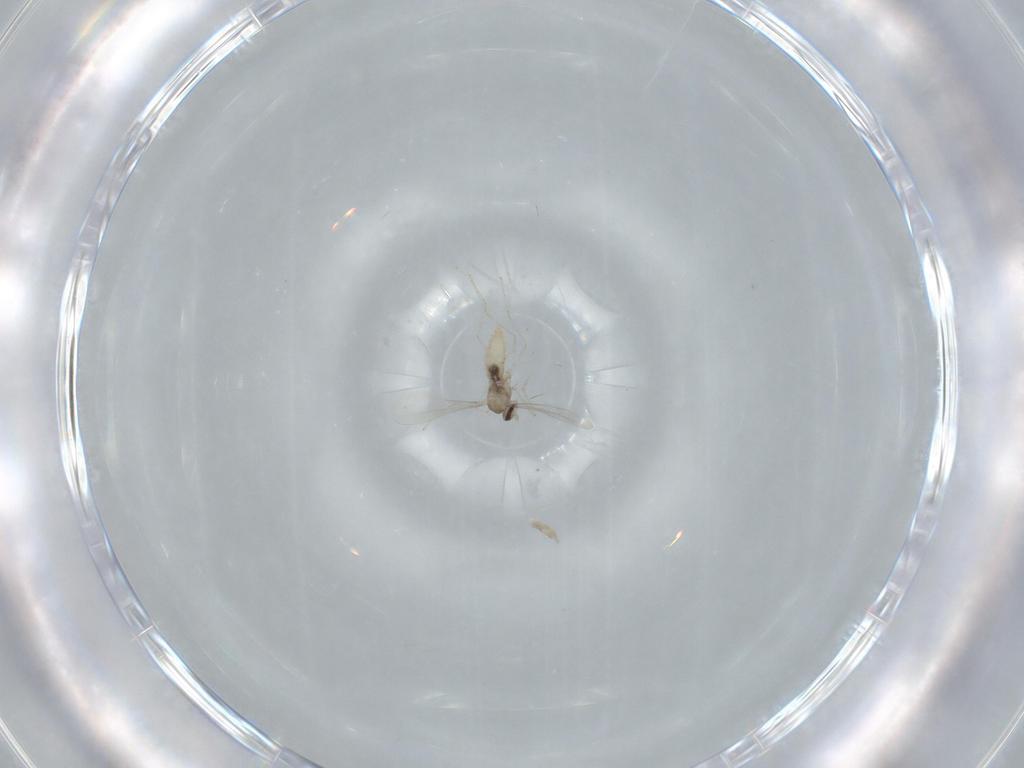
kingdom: Animalia
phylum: Arthropoda
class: Insecta
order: Diptera
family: Cecidomyiidae
